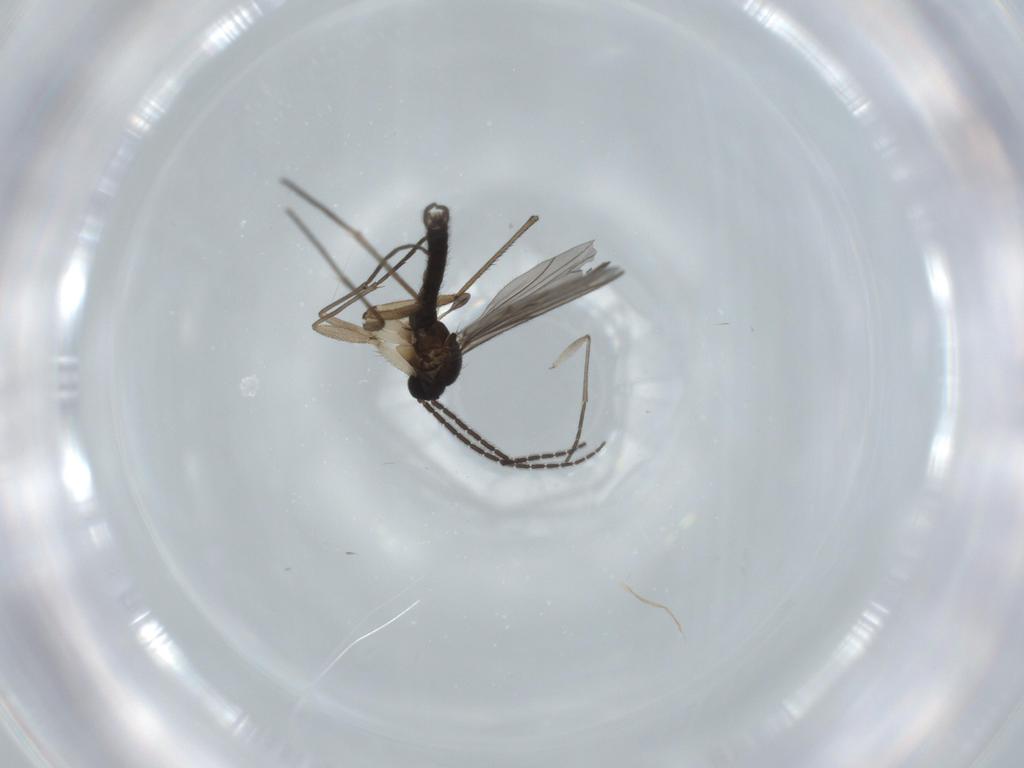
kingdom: Animalia
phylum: Arthropoda
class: Insecta
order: Diptera
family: Sciaridae
